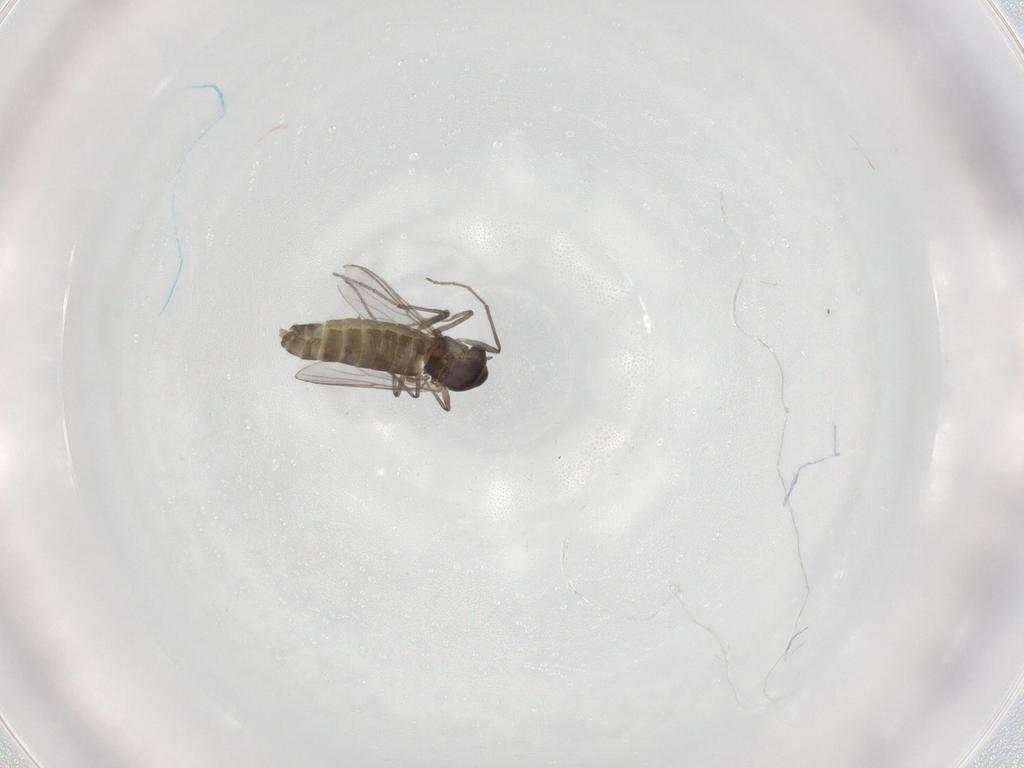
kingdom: Animalia
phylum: Arthropoda
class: Insecta
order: Diptera
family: Chironomidae
